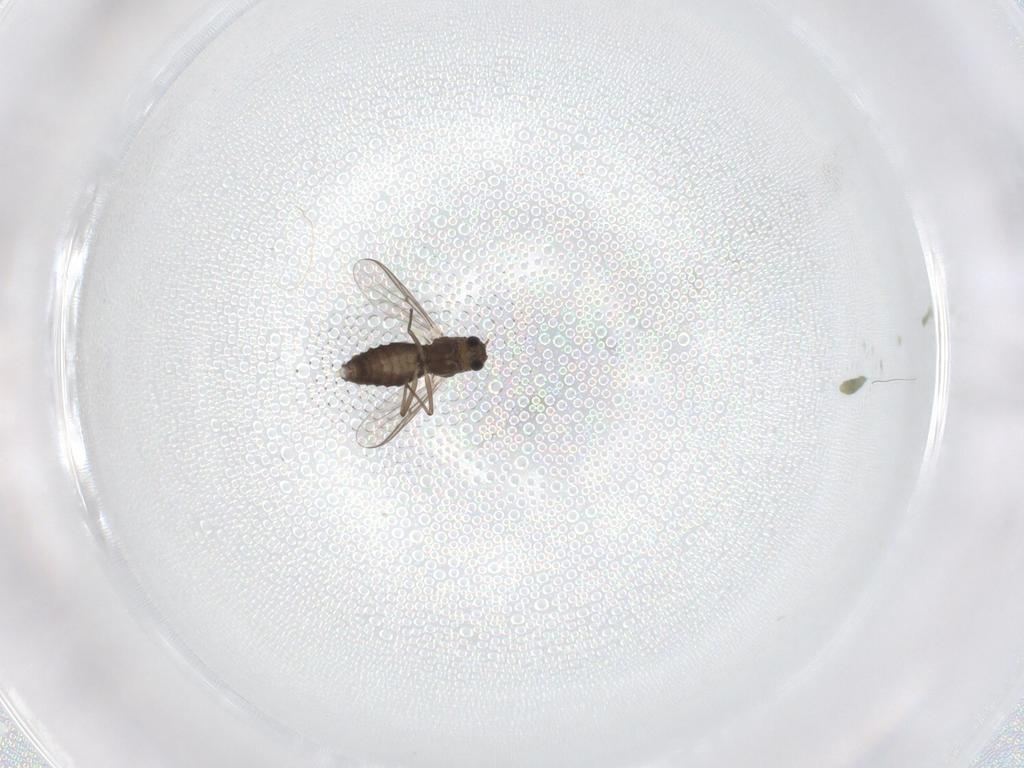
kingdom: Animalia
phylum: Arthropoda
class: Insecta
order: Diptera
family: Chironomidae
